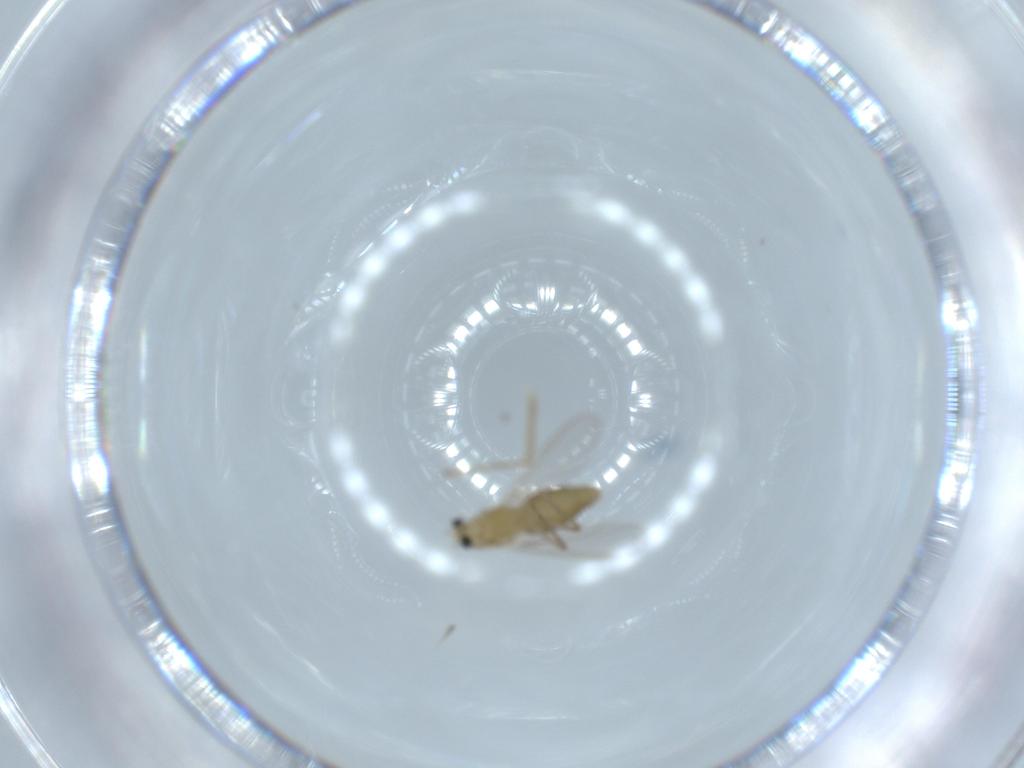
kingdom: Animalia
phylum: Arthropoda
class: Insecta
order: Diptera
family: Chironomidae
